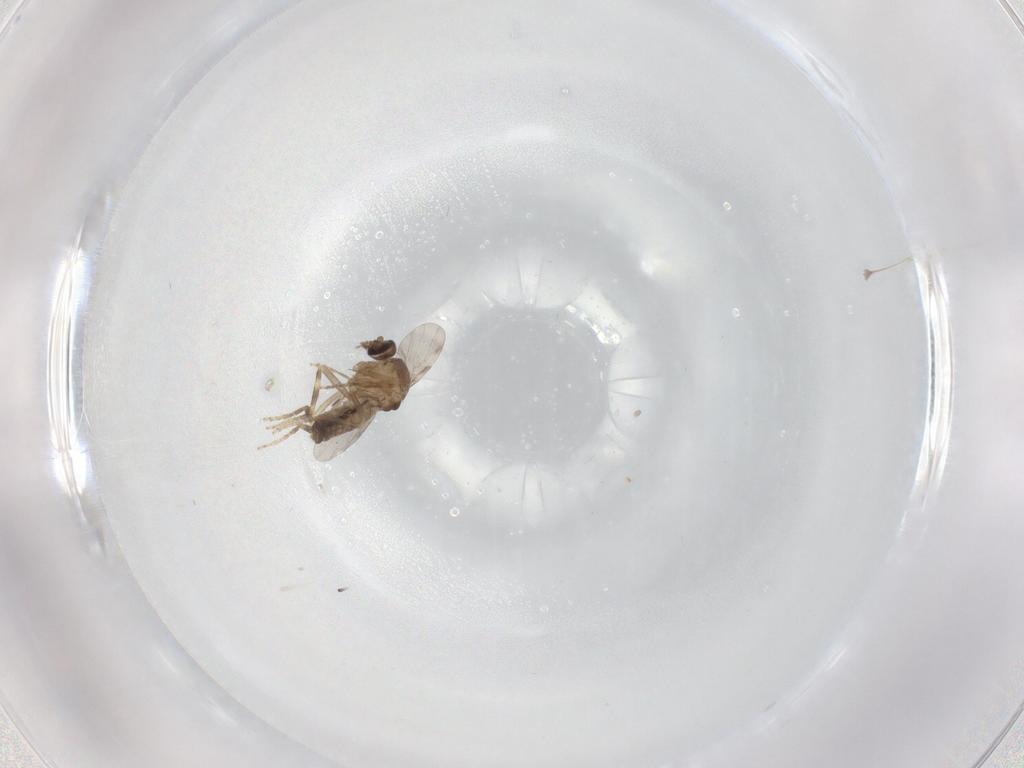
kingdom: Animalia
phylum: Arthropoda
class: Insecta
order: Diptera
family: Ceratopogonidae
